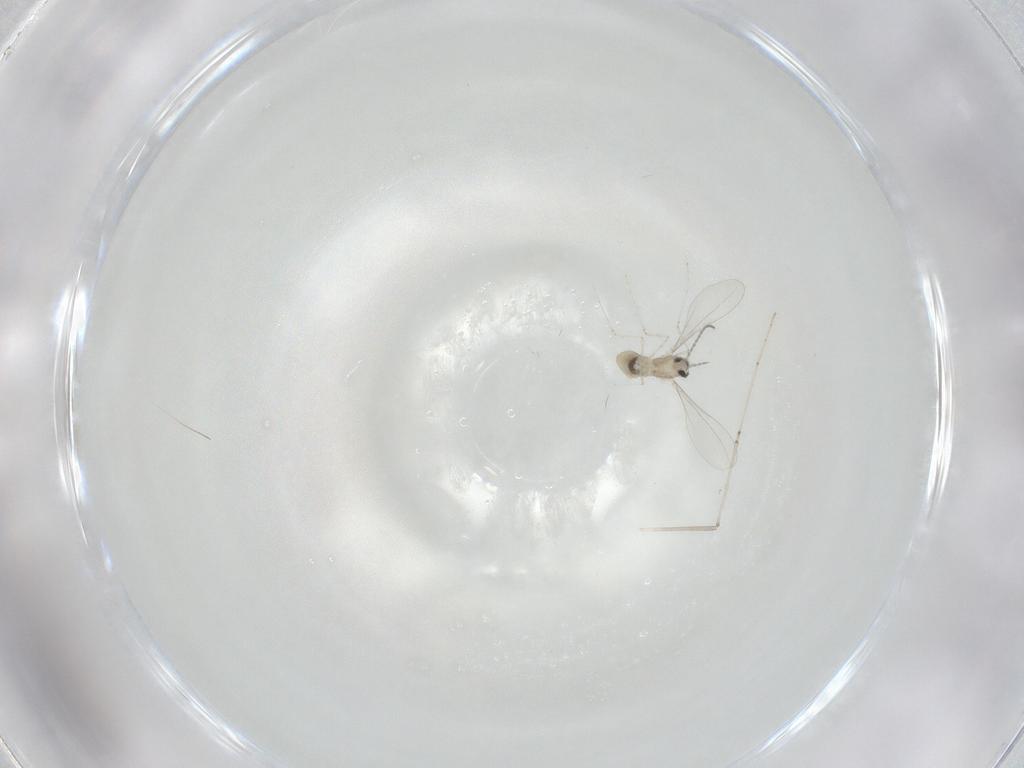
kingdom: Animalia
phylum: Arthropoda
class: Insecta
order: Diptera
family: Cecidomyiidae
